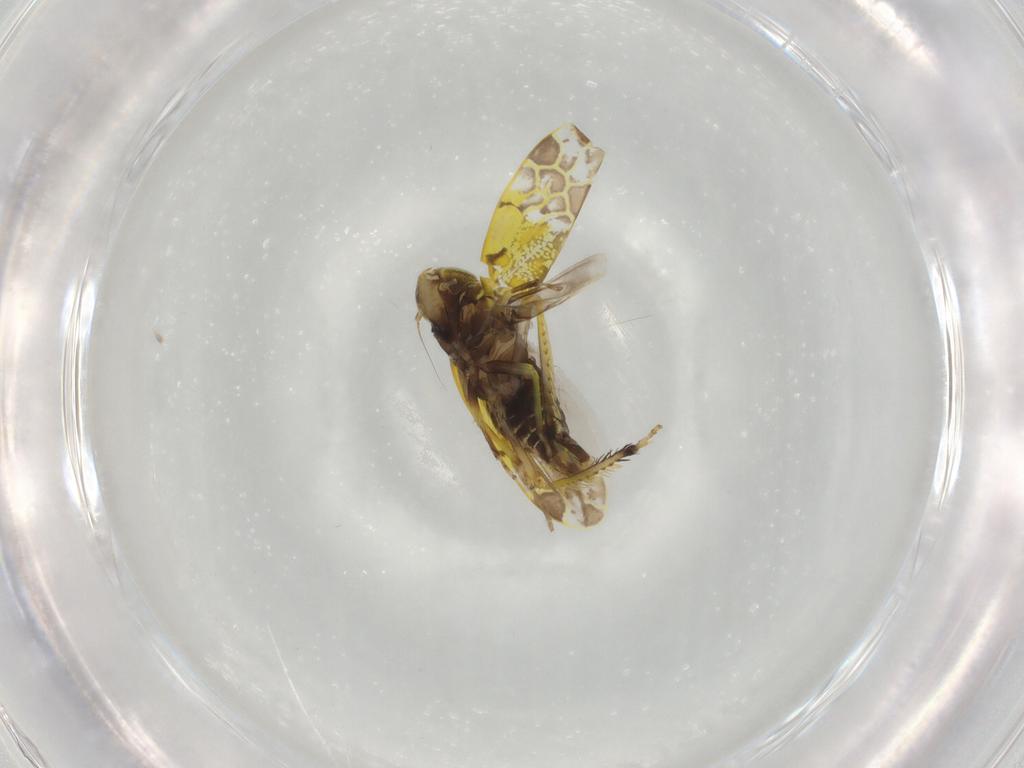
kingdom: Animalia
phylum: Arthropoda
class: Insecta
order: Hemiptera
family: Cicadellidae
